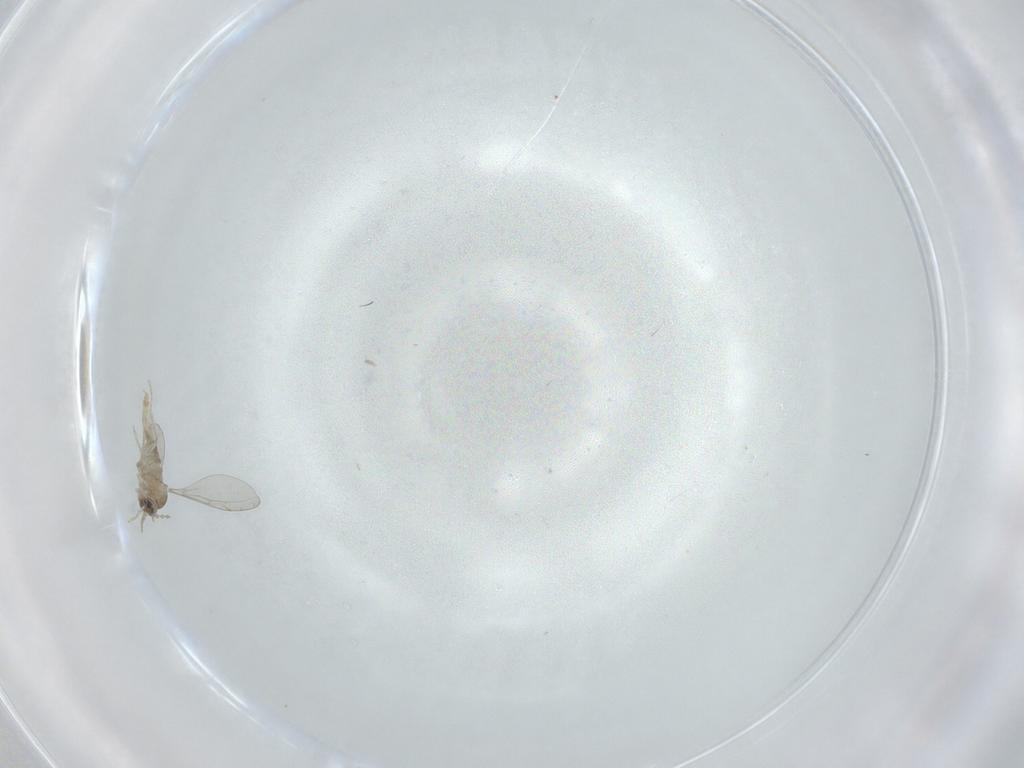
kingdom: Animalia
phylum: Arthropoda
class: Insecta
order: Diptera
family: Cecidomyiidae
